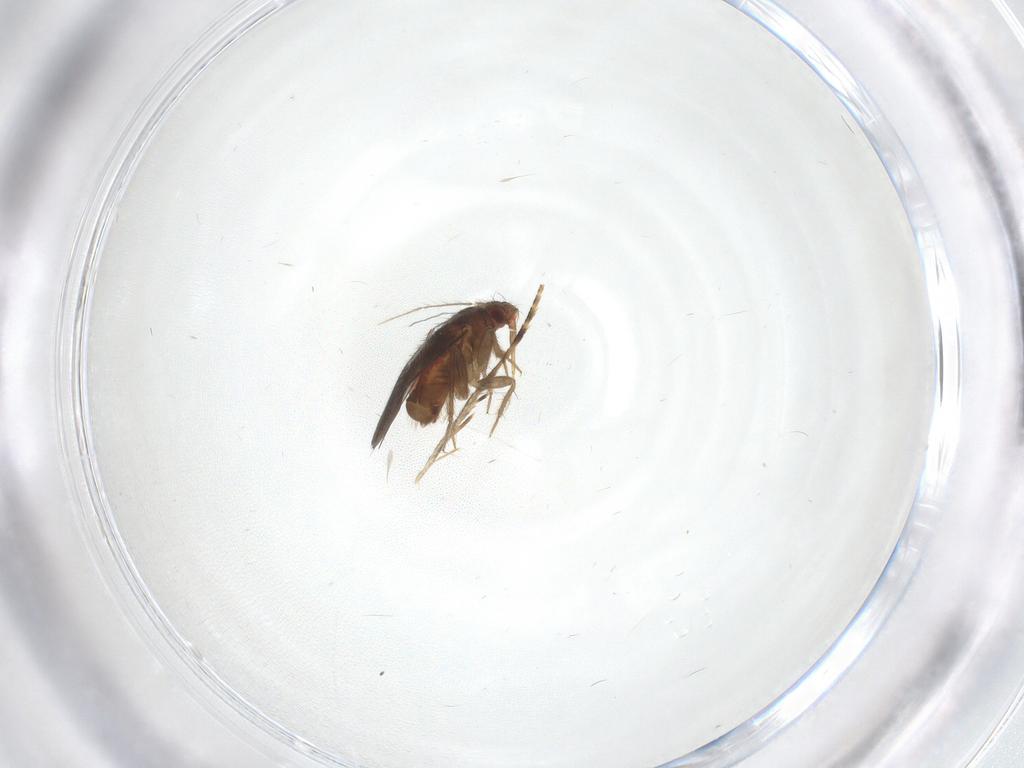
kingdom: Animalia
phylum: Arthropoda
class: Insecta
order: Hemiptera
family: Ceratocombidae
